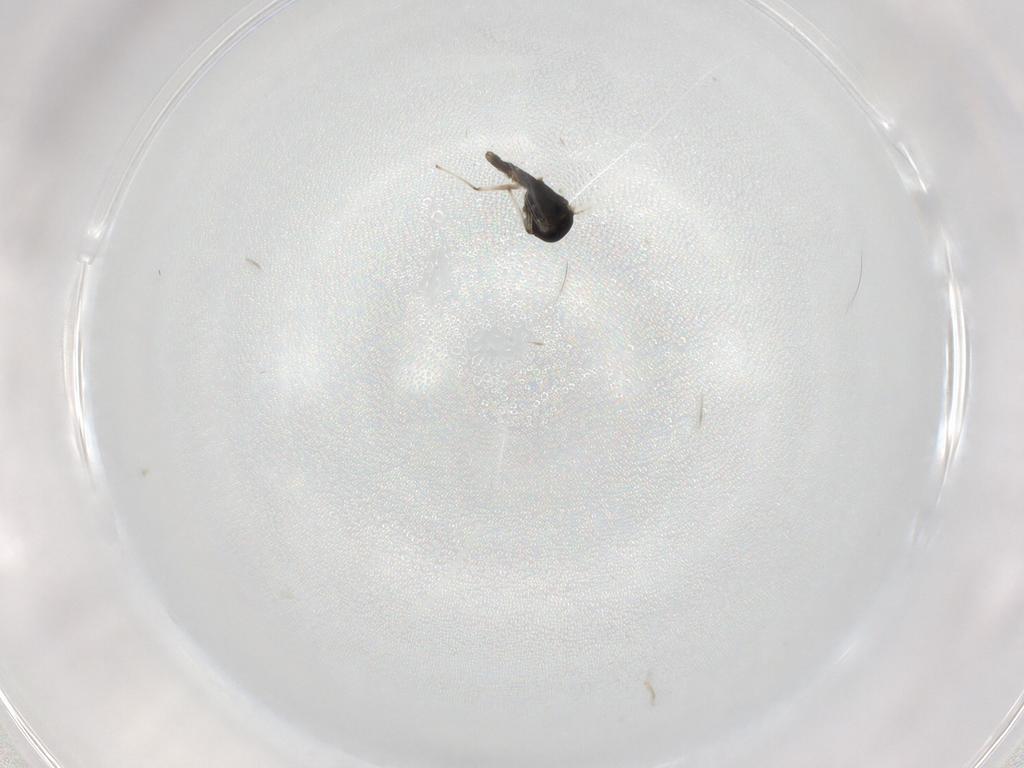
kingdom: Animalia
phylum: Arthropoda
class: Insecta
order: Diptera
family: Chironomidae
